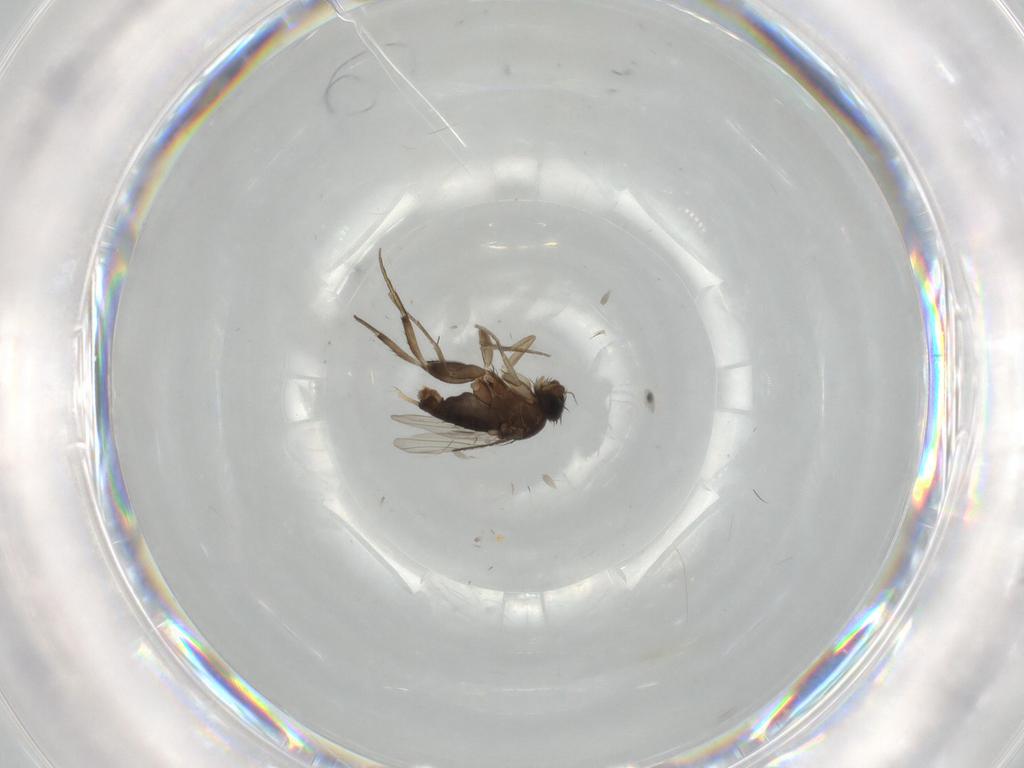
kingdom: Animalia
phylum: Arthropoda
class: Insecta
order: Diptera
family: Phoridae
